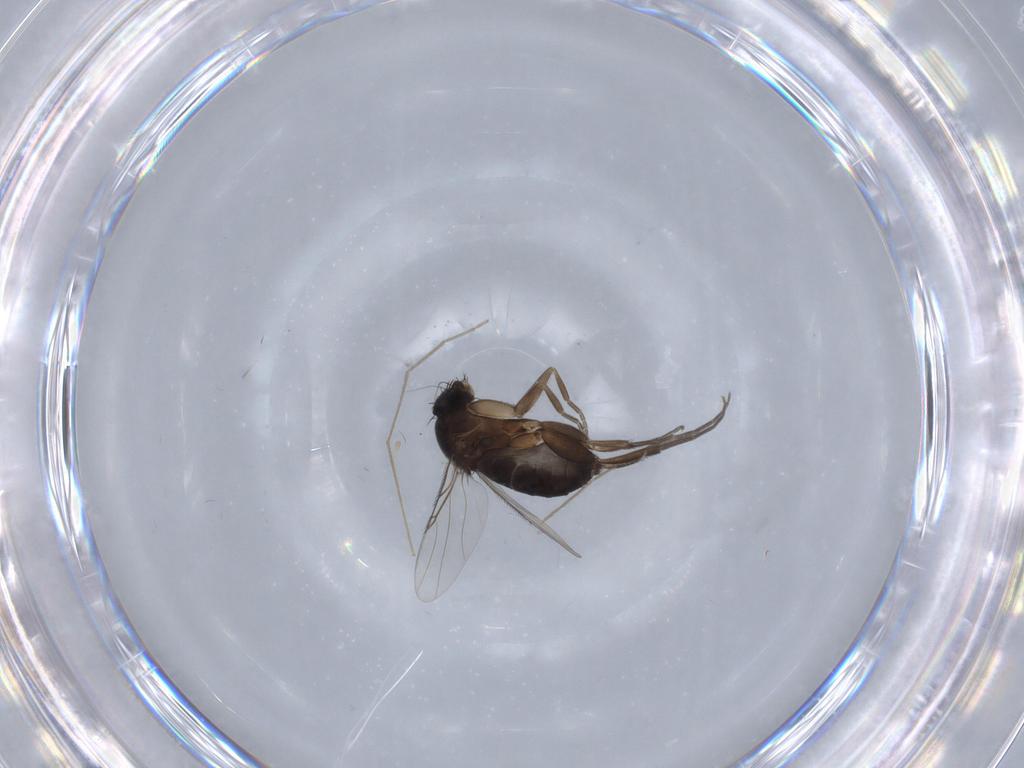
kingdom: Animalia
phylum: Arthropoda
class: Insecta
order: Diptera
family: Phoridae
